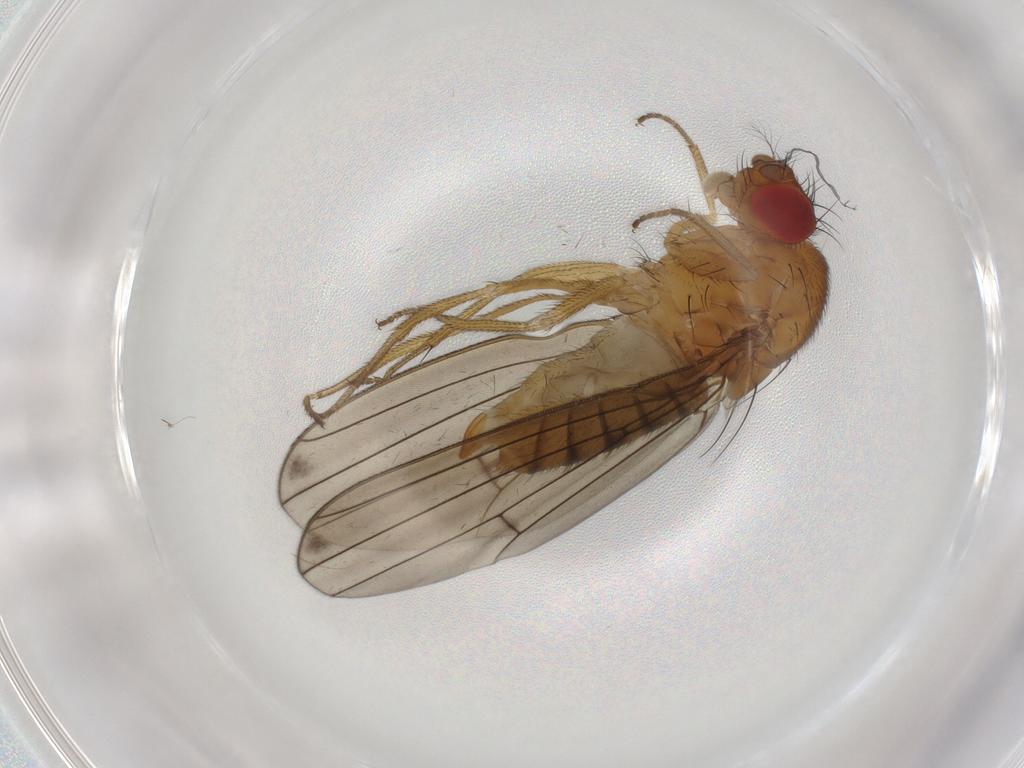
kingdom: Animalia
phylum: Arthropoda
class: Insecta
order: Diptera
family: Drosophilidae
